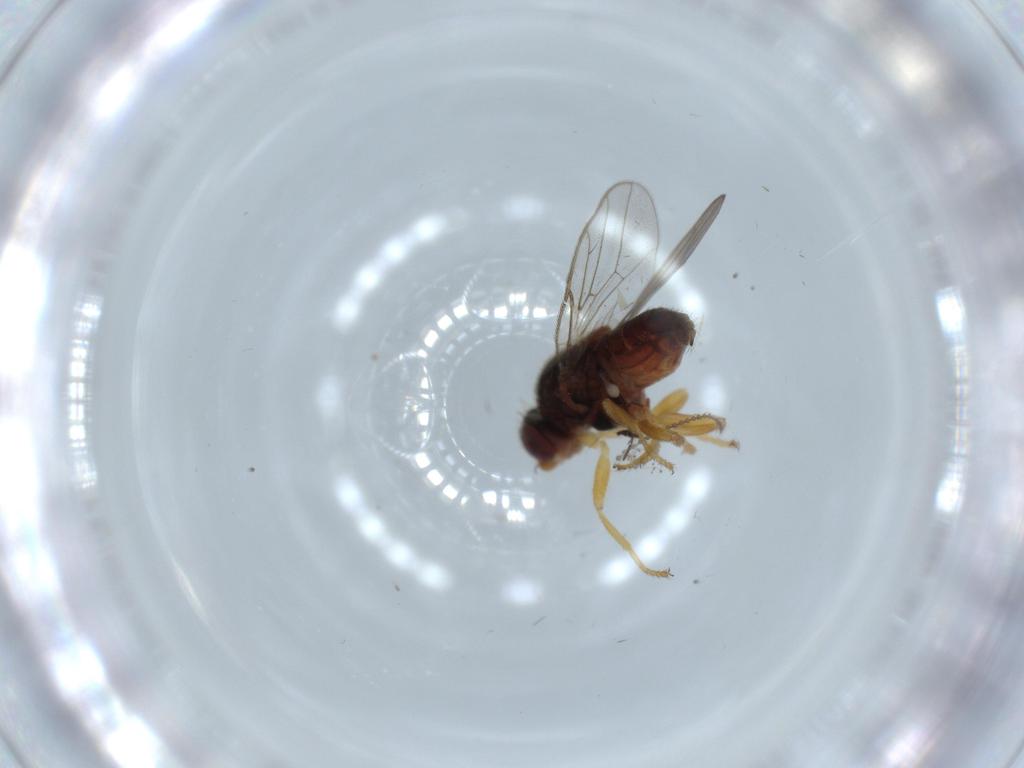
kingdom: Animalia
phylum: Arthropoda
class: Insecta
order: Diptera
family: Chloropidae
